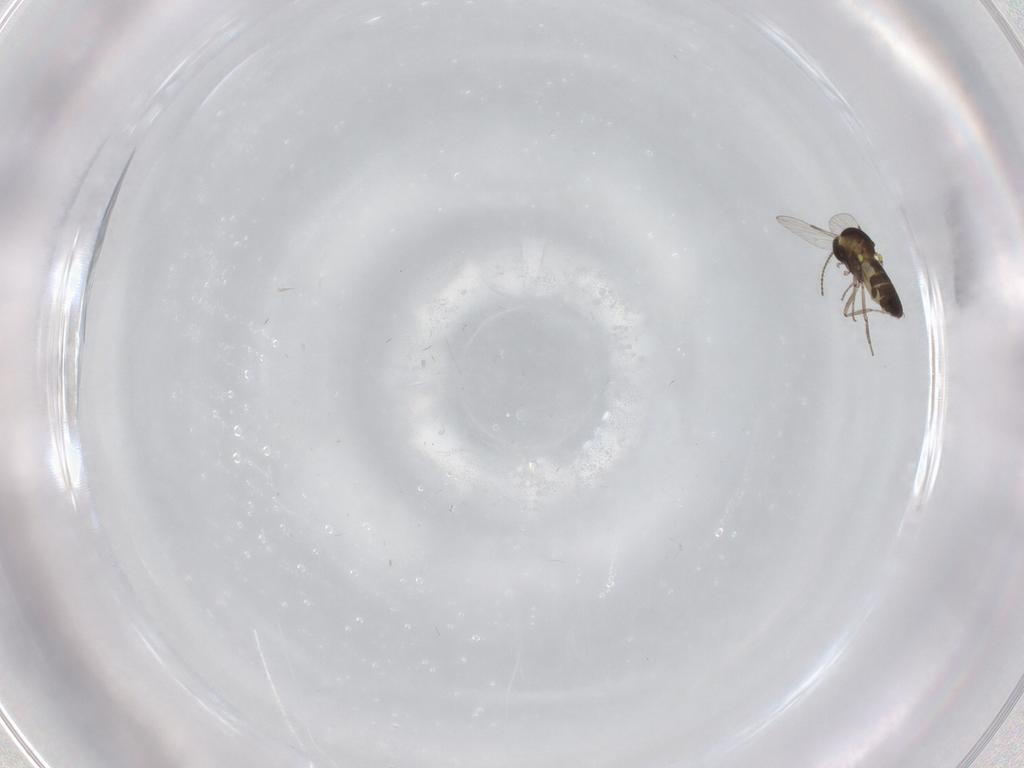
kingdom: Animalia
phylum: Arthropoda
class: Insecta
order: Diptera
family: Ceratopogonidae
